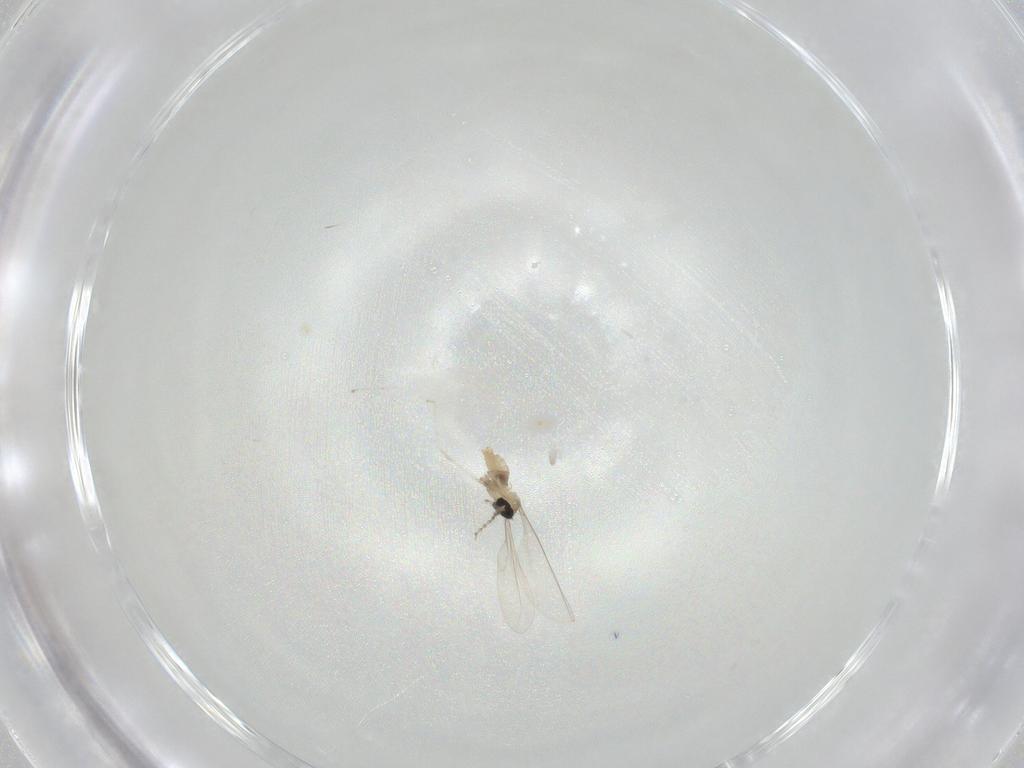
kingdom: Animalia
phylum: Arthropoda
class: Insecta
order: Diptera
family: Cecidomyiidae
